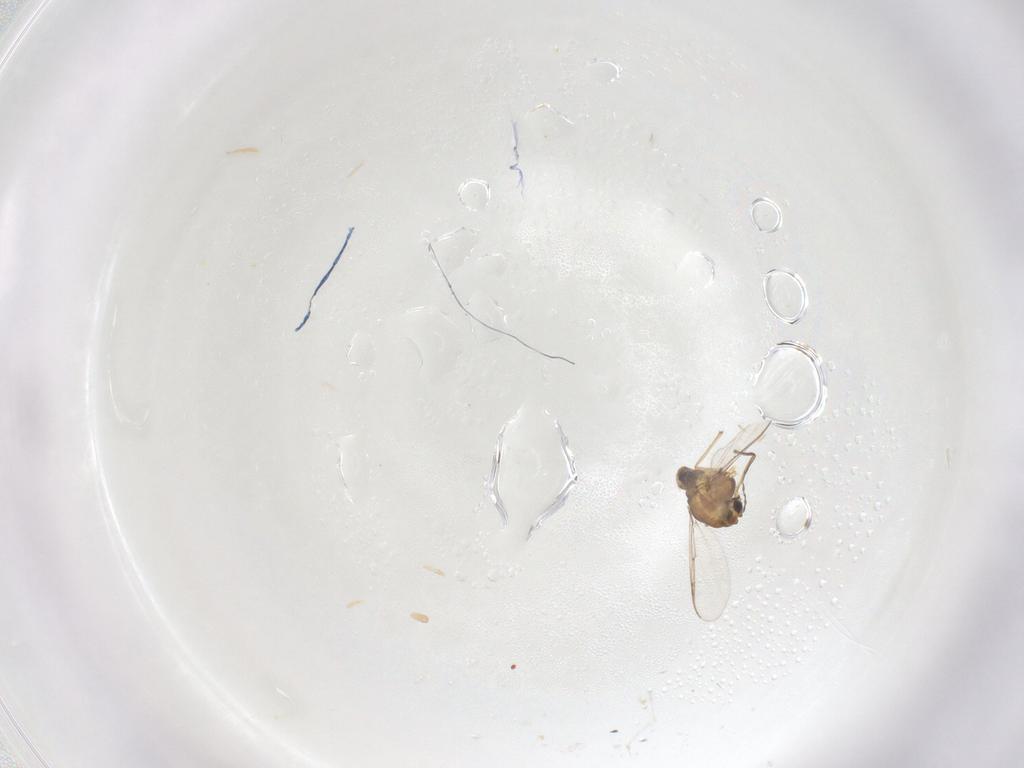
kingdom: Animalia
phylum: Arthropoda
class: Insecta
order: Diptera
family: Chironomidae
